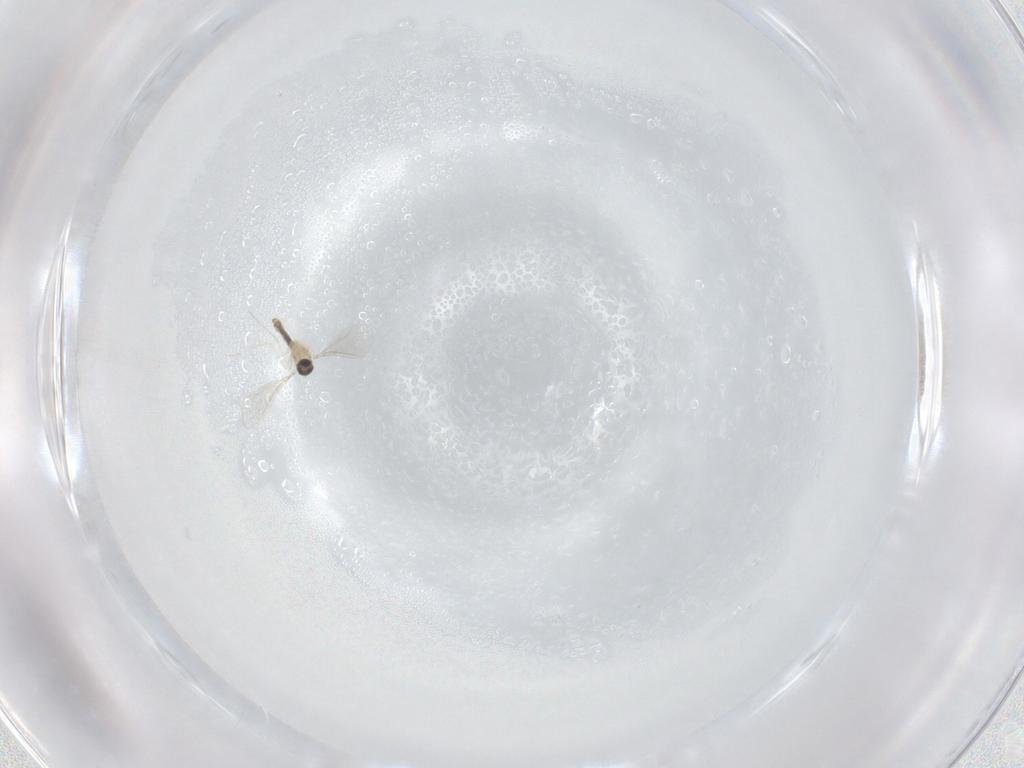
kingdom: Animalia
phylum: Arthropoda
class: Insecta
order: Diptera
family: Cecidomyiidae
